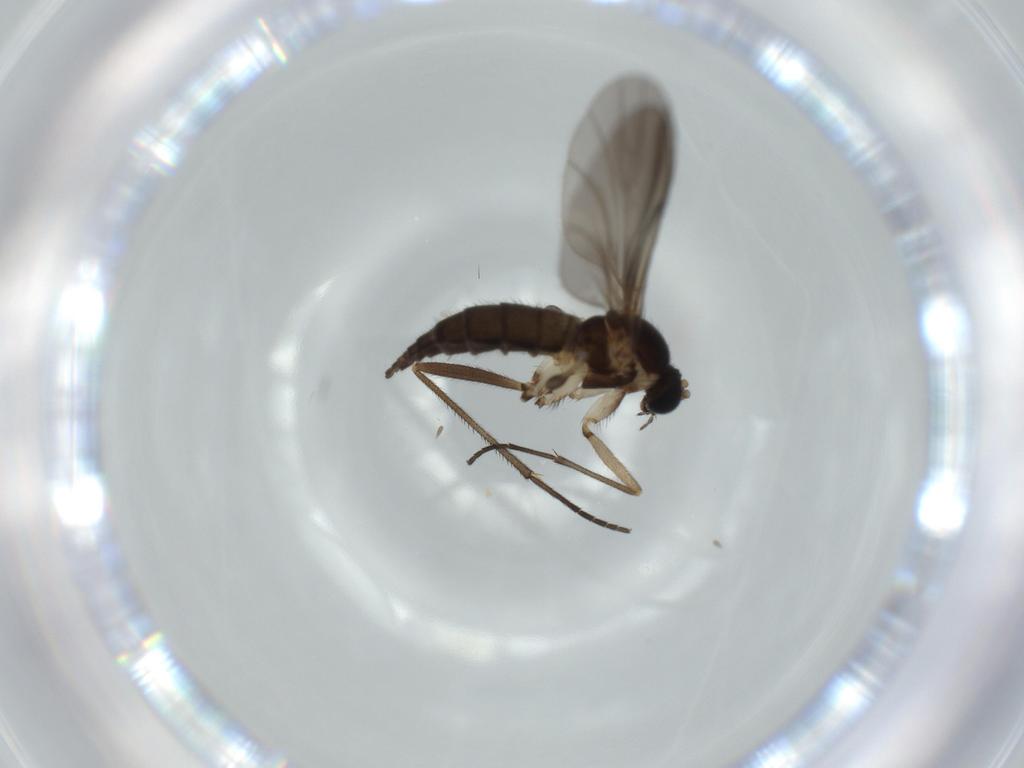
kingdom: Animalia
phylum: Arthropoda
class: Insecta
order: Diptera
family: Sciaridae
